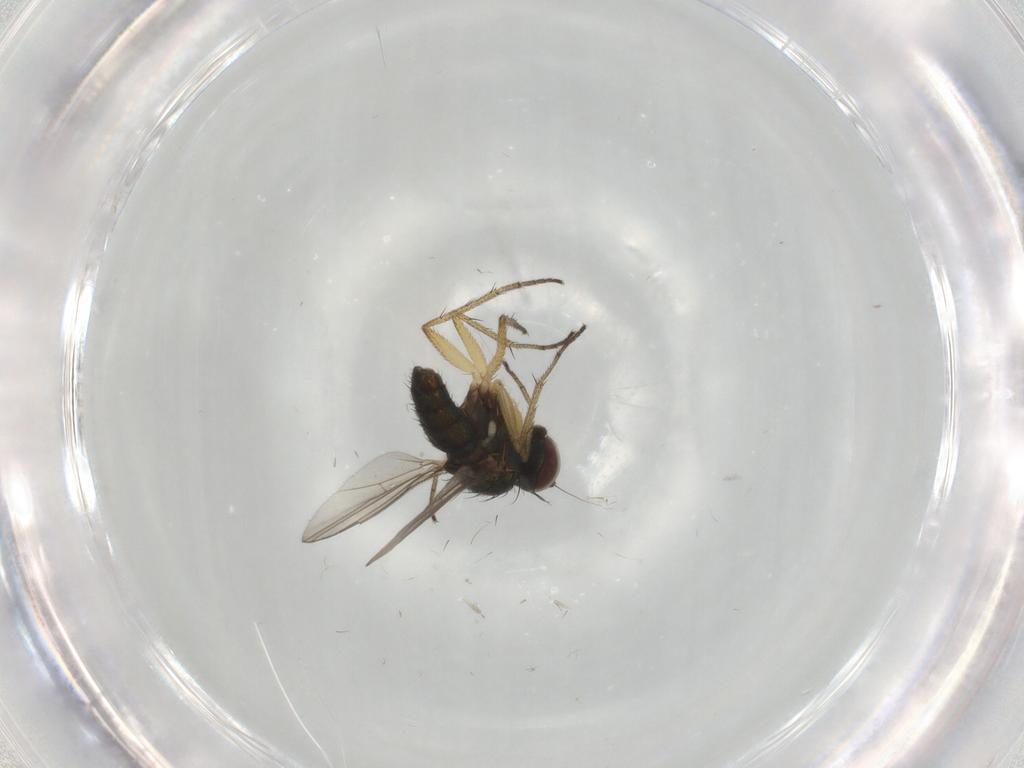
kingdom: Animalia
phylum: Arthropoda
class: Insecta
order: Diptera
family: Dolichopodidae
